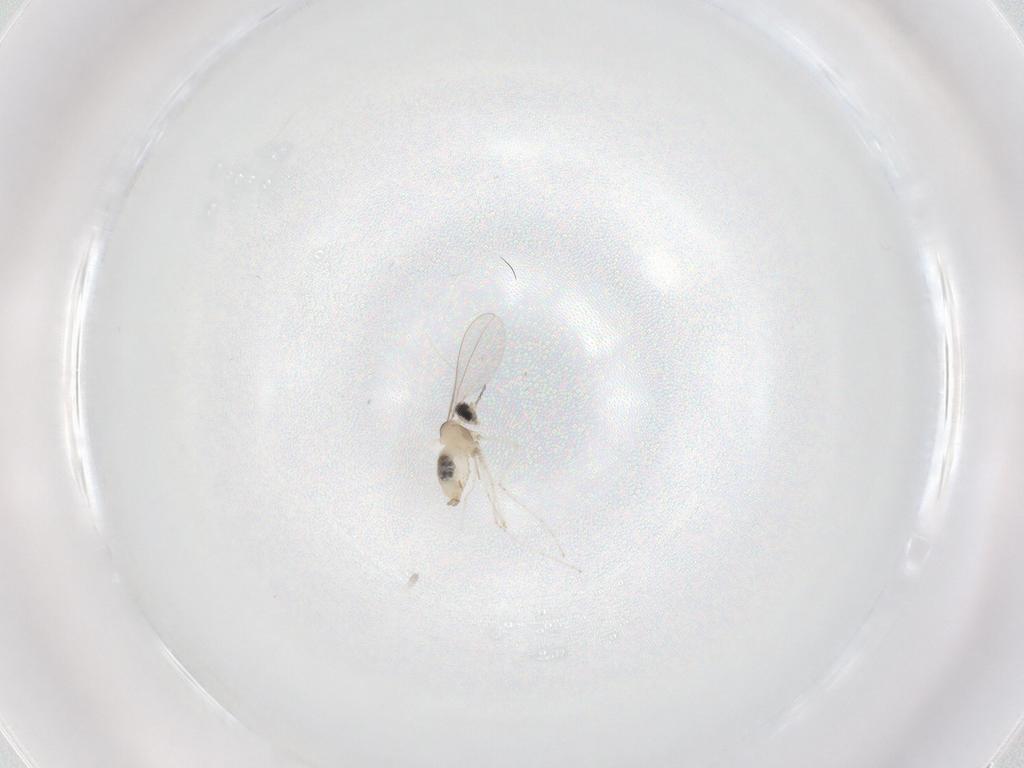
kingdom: Animalia
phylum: Arthropoda
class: Insecta
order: Diptera
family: Cecidomyiidae
